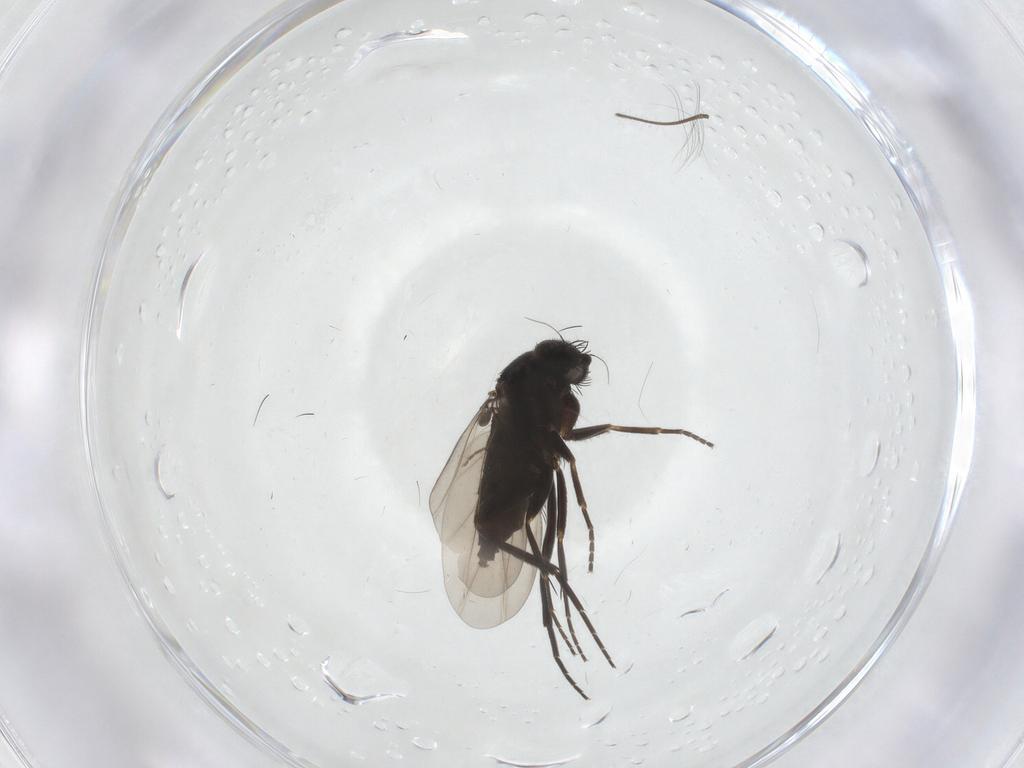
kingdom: Animalia
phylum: Arthropoda
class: Insecta
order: Diptera
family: Phoridae
